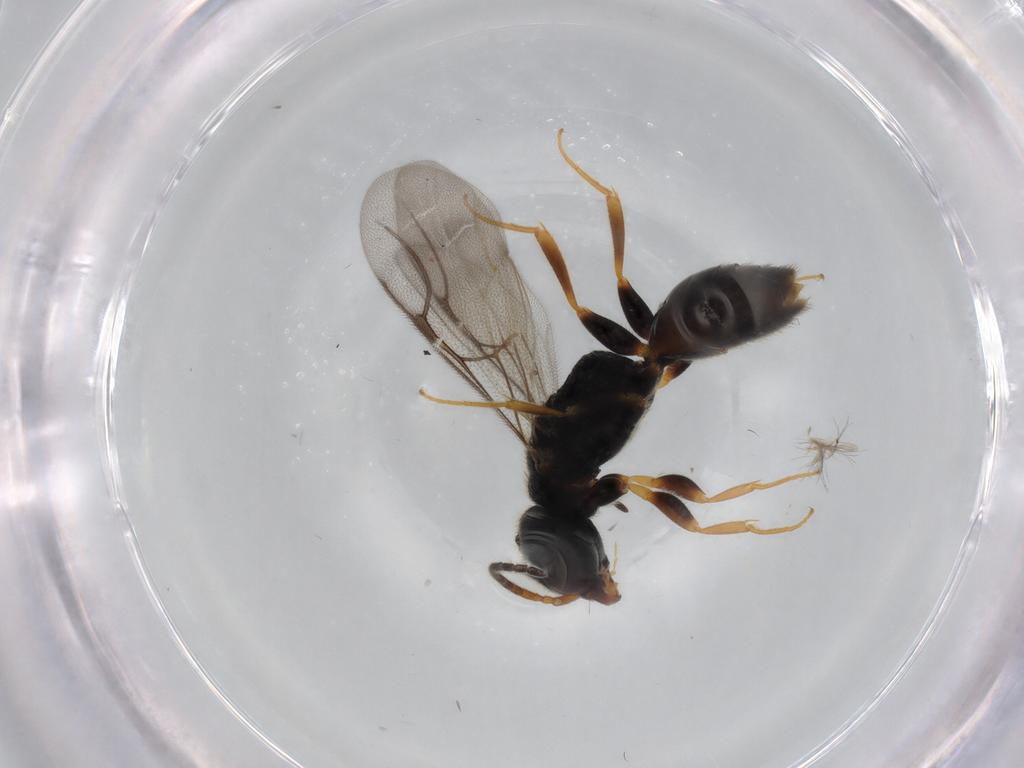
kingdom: Animalia
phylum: Arthropoda
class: Insecta
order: Hymenoptera
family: Bethylidae
